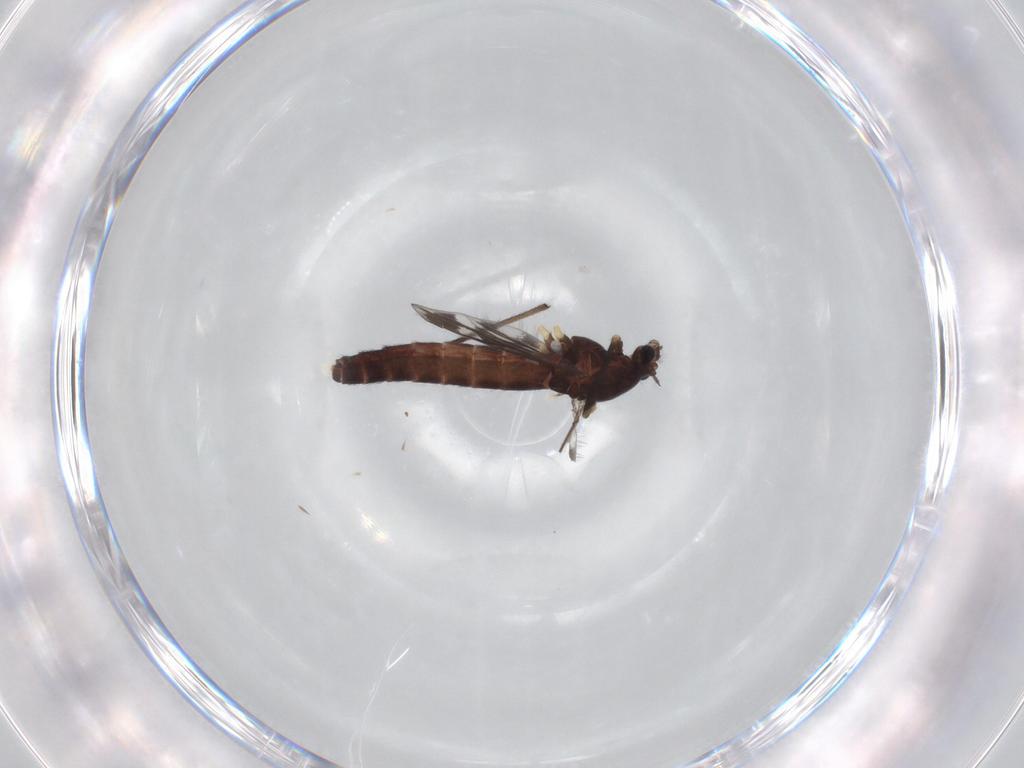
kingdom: Animalia
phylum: Arthropoda
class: Insecta
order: Diptera
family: Chironomidae
